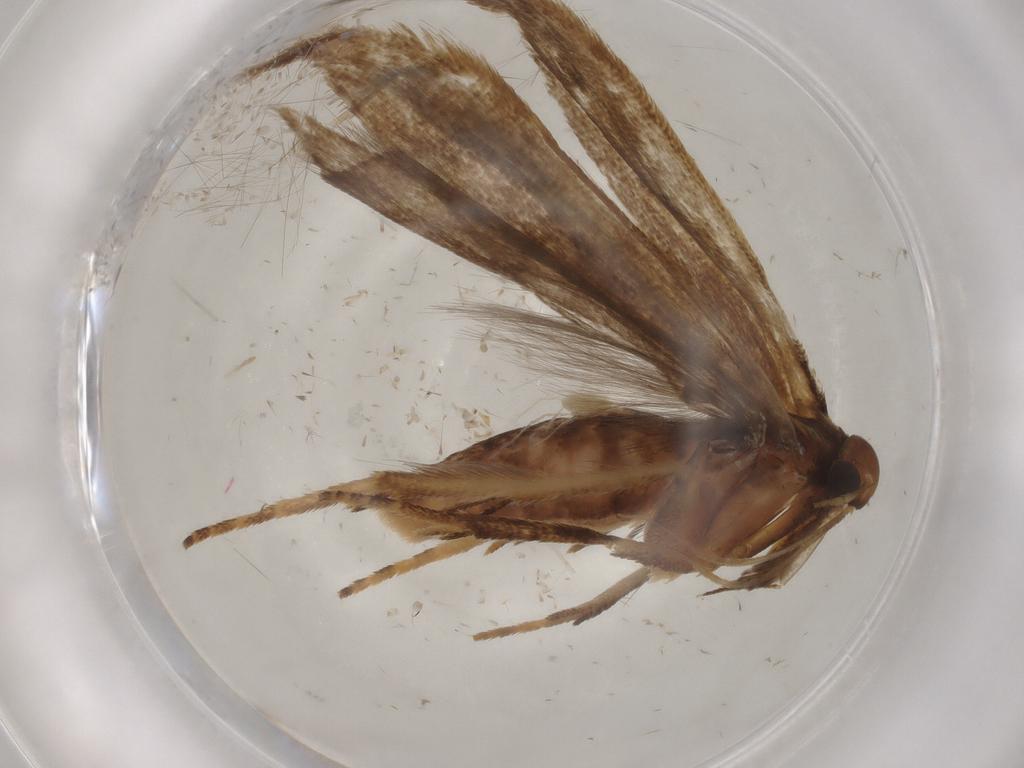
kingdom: Animalia
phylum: Arthropoda
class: Insecta
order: Lepidoptera
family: Gelechiidae
